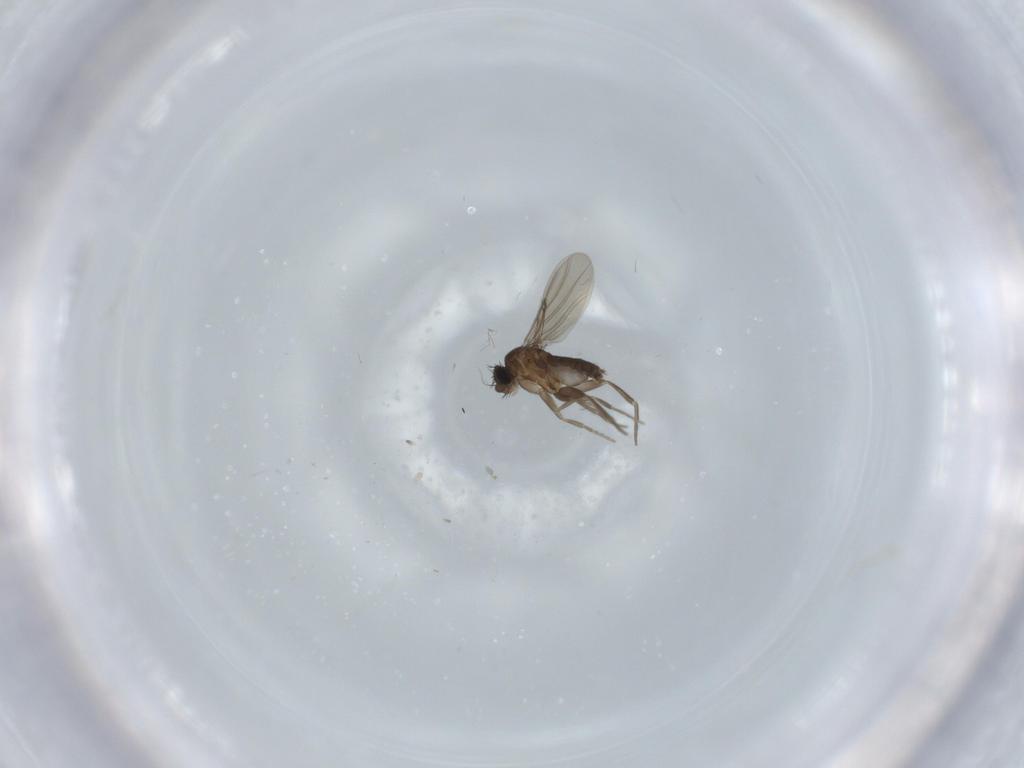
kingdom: Animalia
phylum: Arthropoda
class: Insecta
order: Diptera
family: Phoridae
